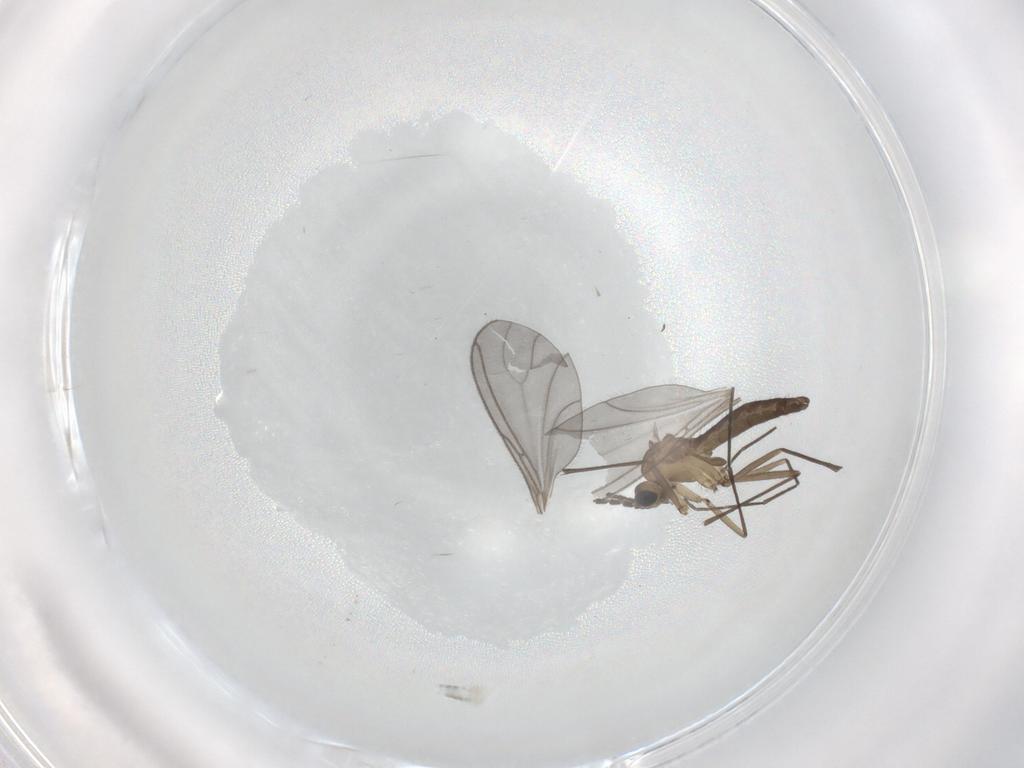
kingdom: Animalia
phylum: Arthropoda
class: Insecta
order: Diptera
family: Sciaridae
